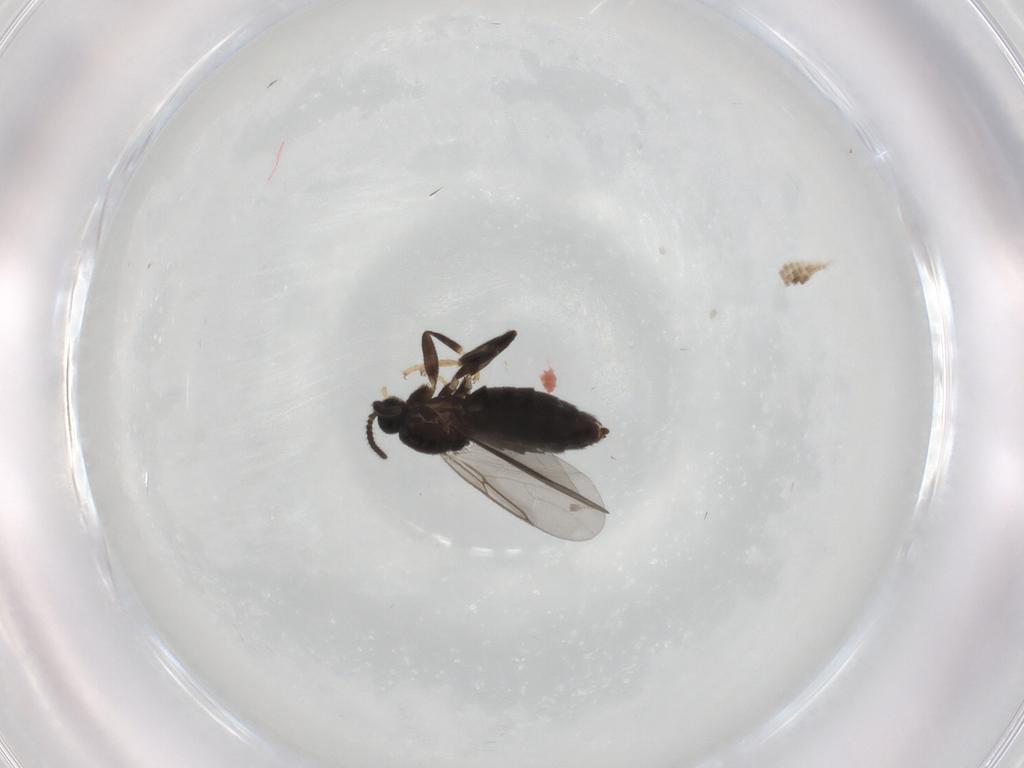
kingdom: Animalia
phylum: Arthropoda
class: Insecta
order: Diptera
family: Scatopsidae
